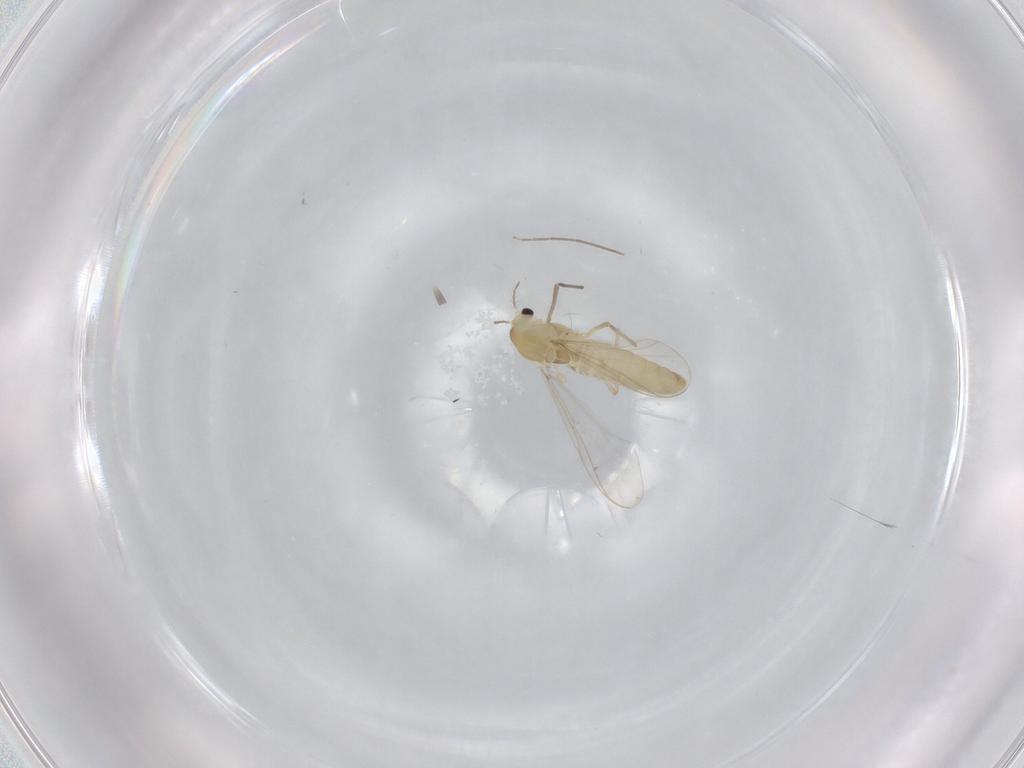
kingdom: Animalia
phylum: Arthropoda
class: Insecta
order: Diptera
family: Chironomidae
